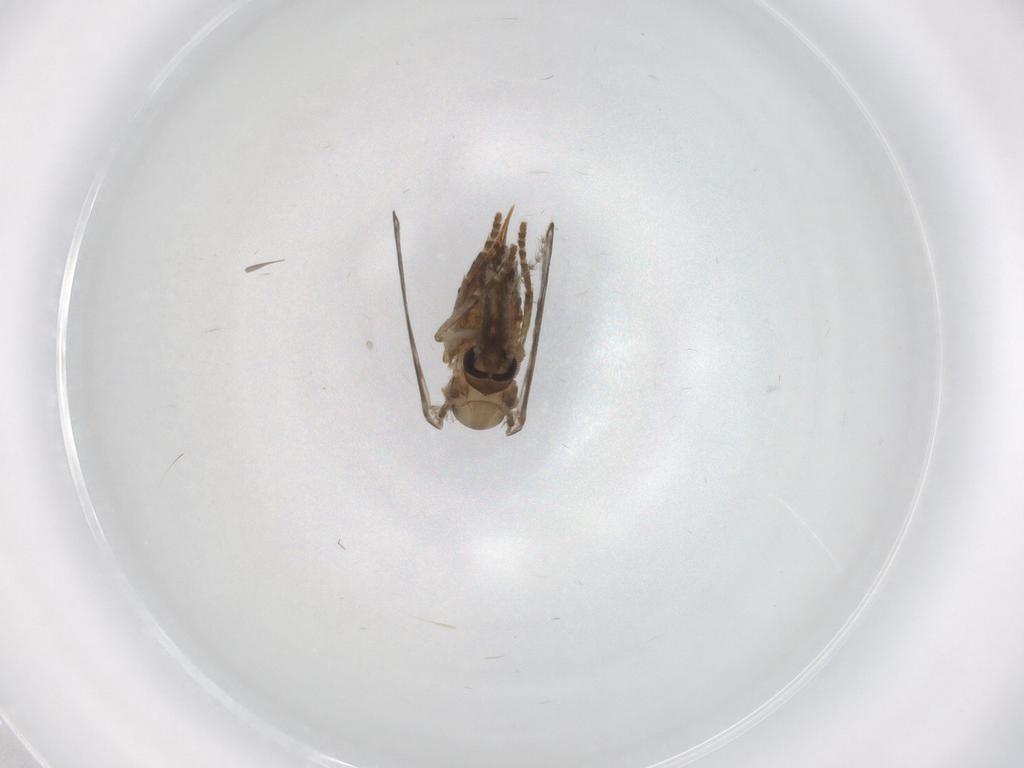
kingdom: Animalia
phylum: Arthropoda
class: Insecta
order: Diptera
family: Psychodidae
